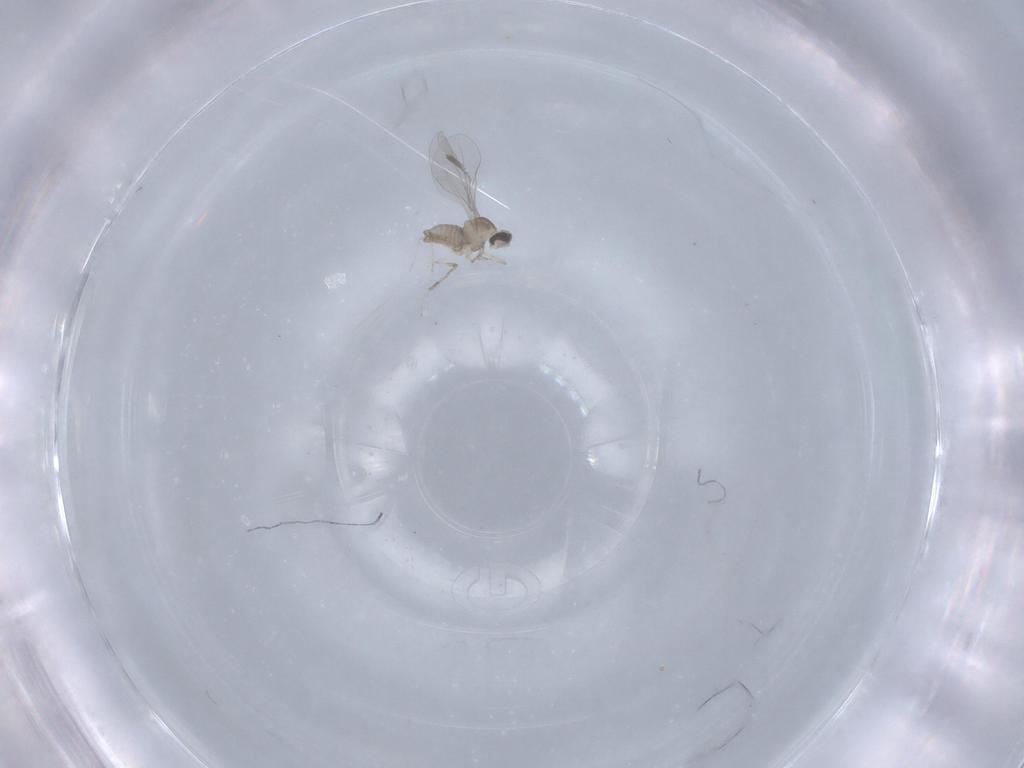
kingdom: Animalia
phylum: Arthropoda
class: Insecta
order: Diptera
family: Cecidomyiidae
